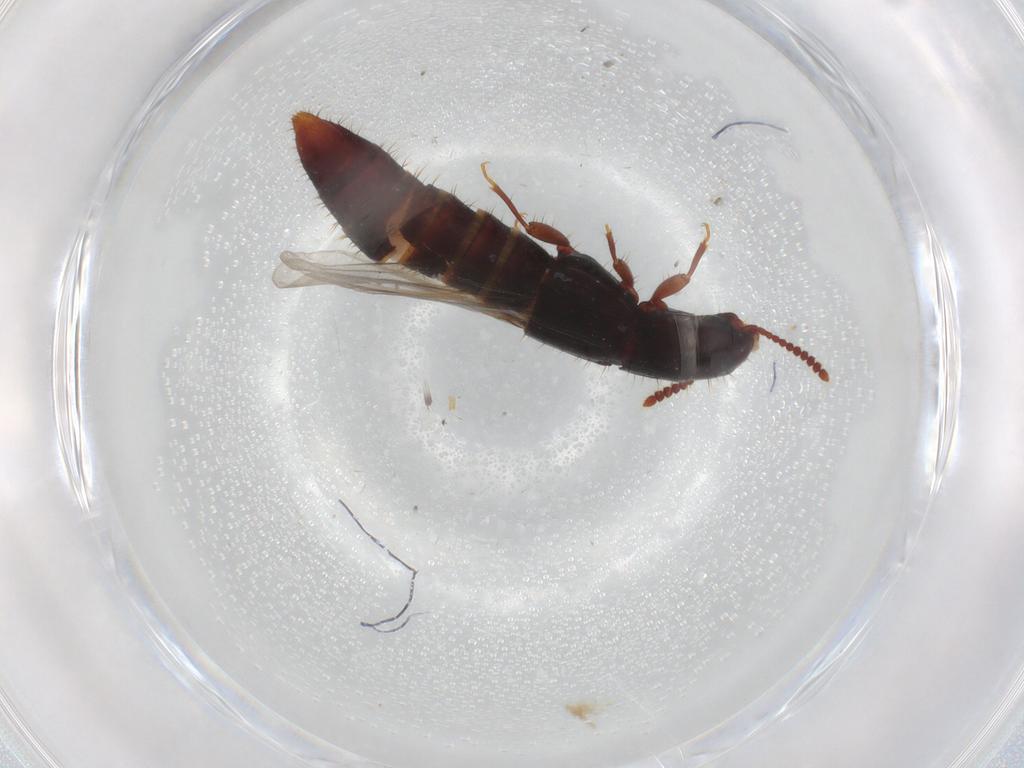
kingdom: Animalia
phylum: Arthropoda
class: Insecta
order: Coleoptera
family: Staphylinidae
